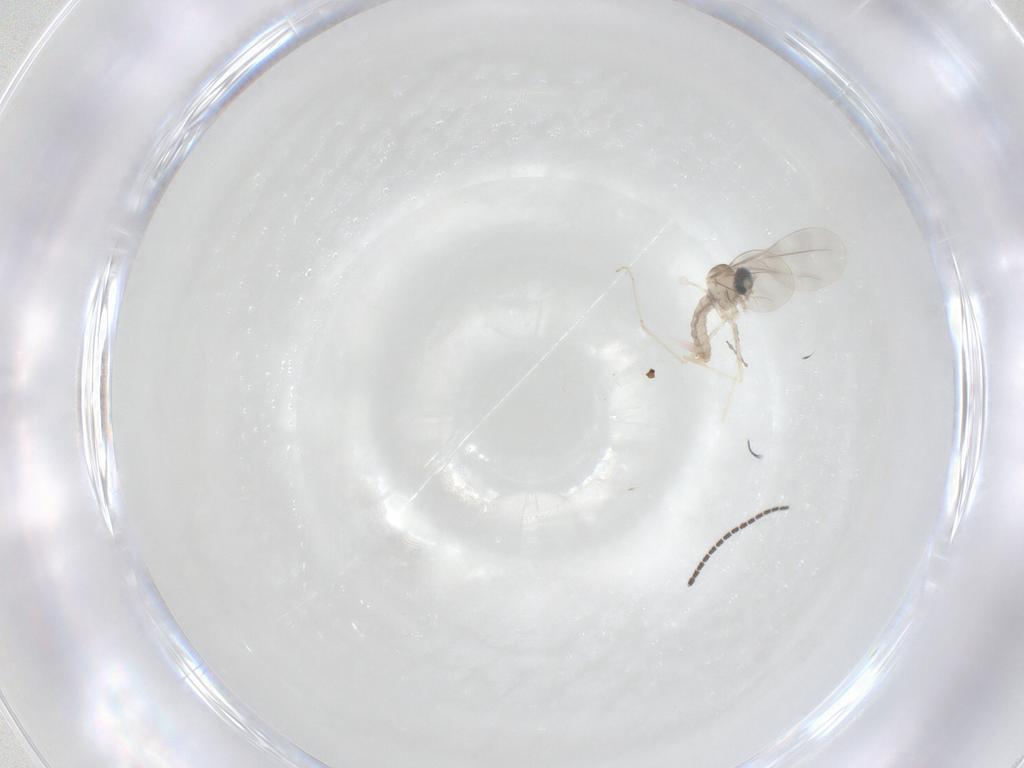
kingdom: Animalia
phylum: Arthropoda
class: Insecta
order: Diptera
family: Cecidomyiidae
